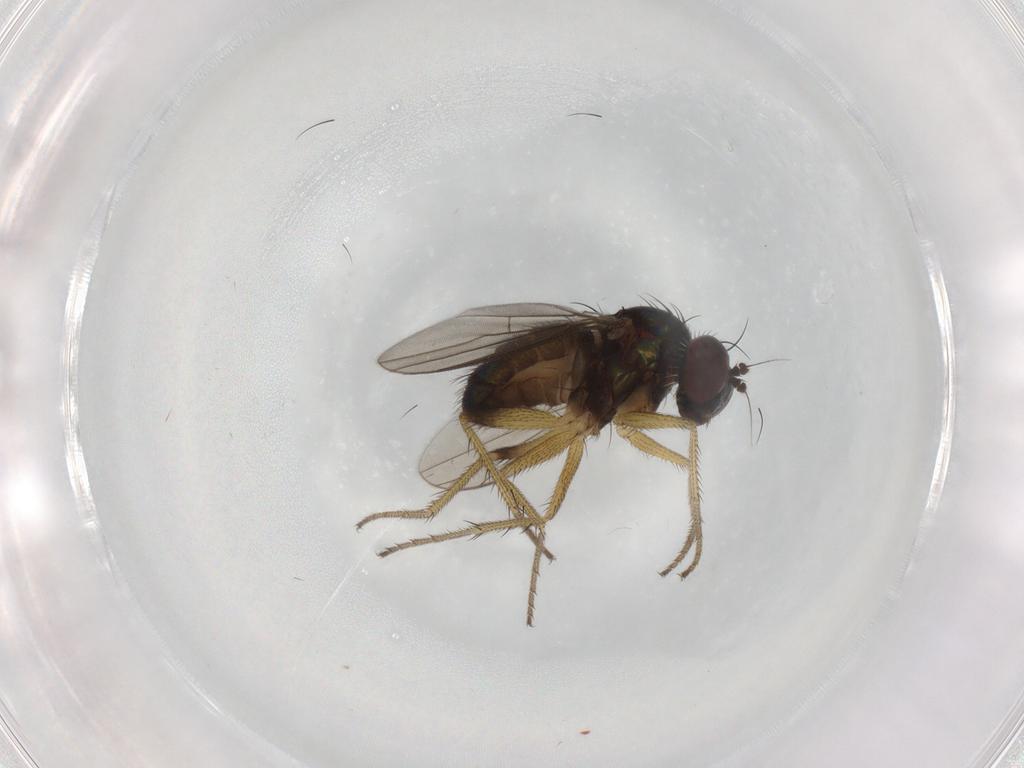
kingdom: Animalia
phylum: Arthropoda
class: Insecta
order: Diptera
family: Dolichopodidae
